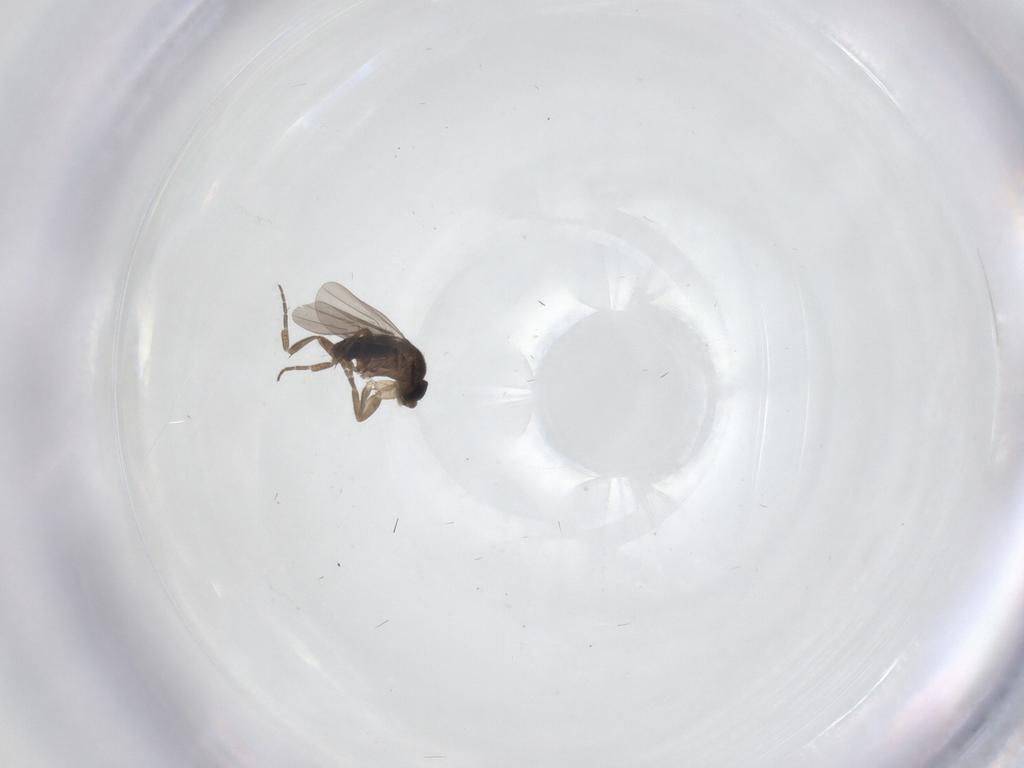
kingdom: Animalia
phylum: Arthropoda
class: Insecta
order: Diptera
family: Phoridae
